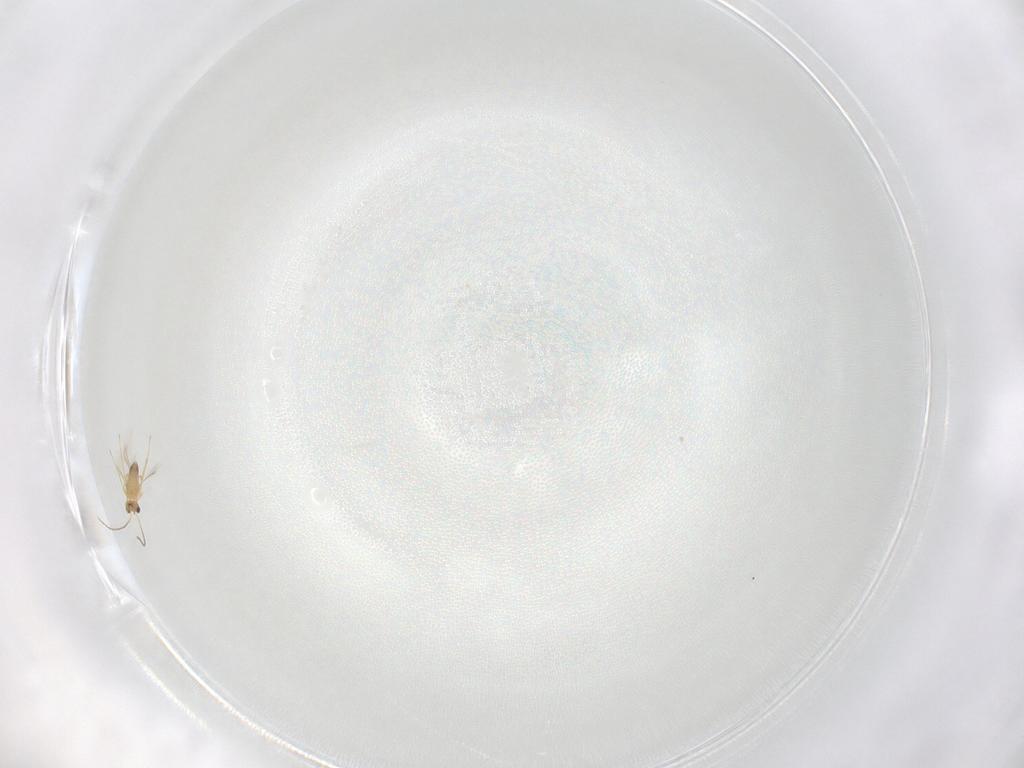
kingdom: Animalia
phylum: Arthropoda
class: Insecta
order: Hymenoptera
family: Mymaridae
